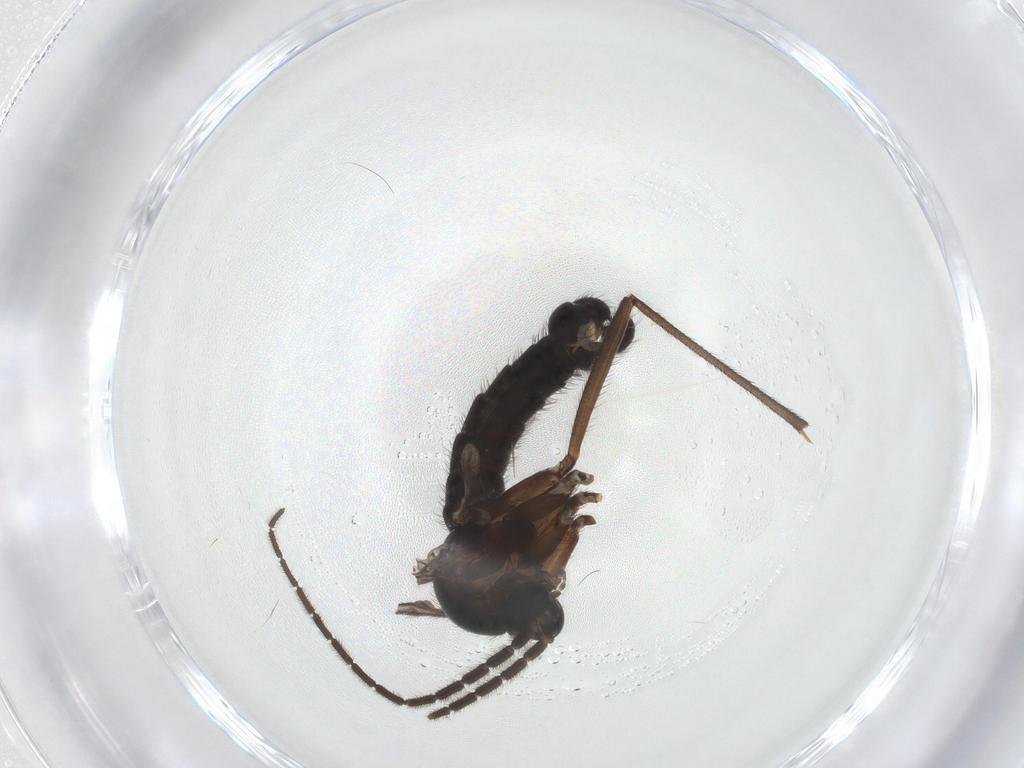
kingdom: Animalia
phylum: Arthropoda
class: Insecta
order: Diptera
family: Sciaridae
